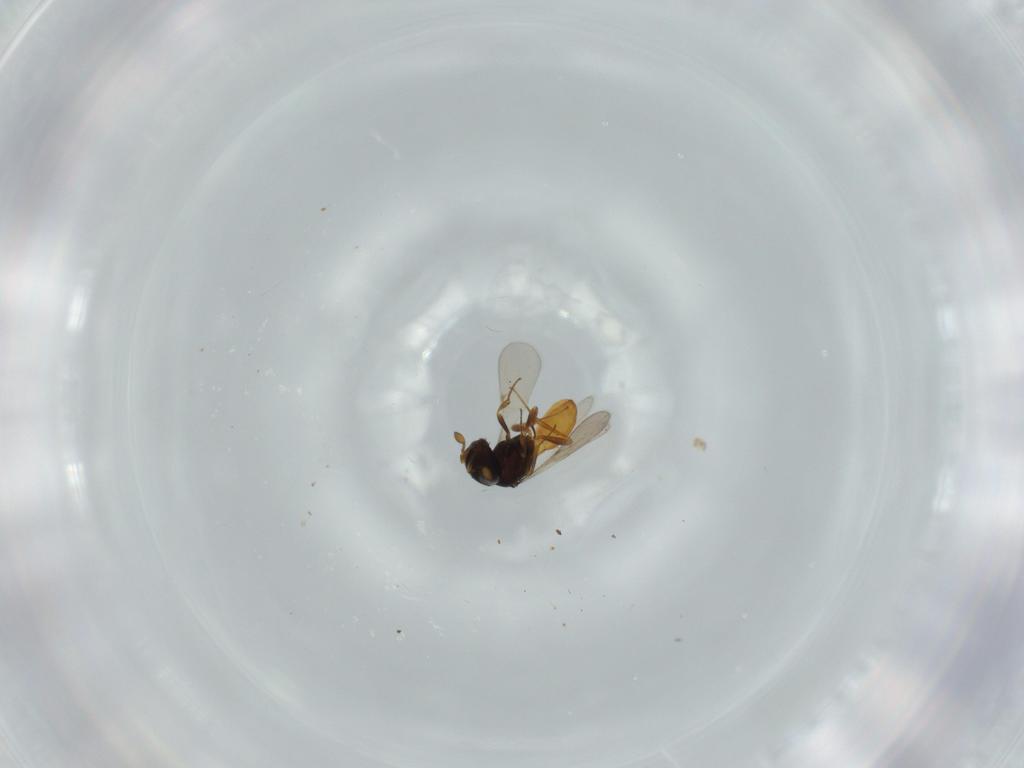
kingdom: Animalia
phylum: Arthropoda
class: Insecta
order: Hymenoptera
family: Scelionidae
